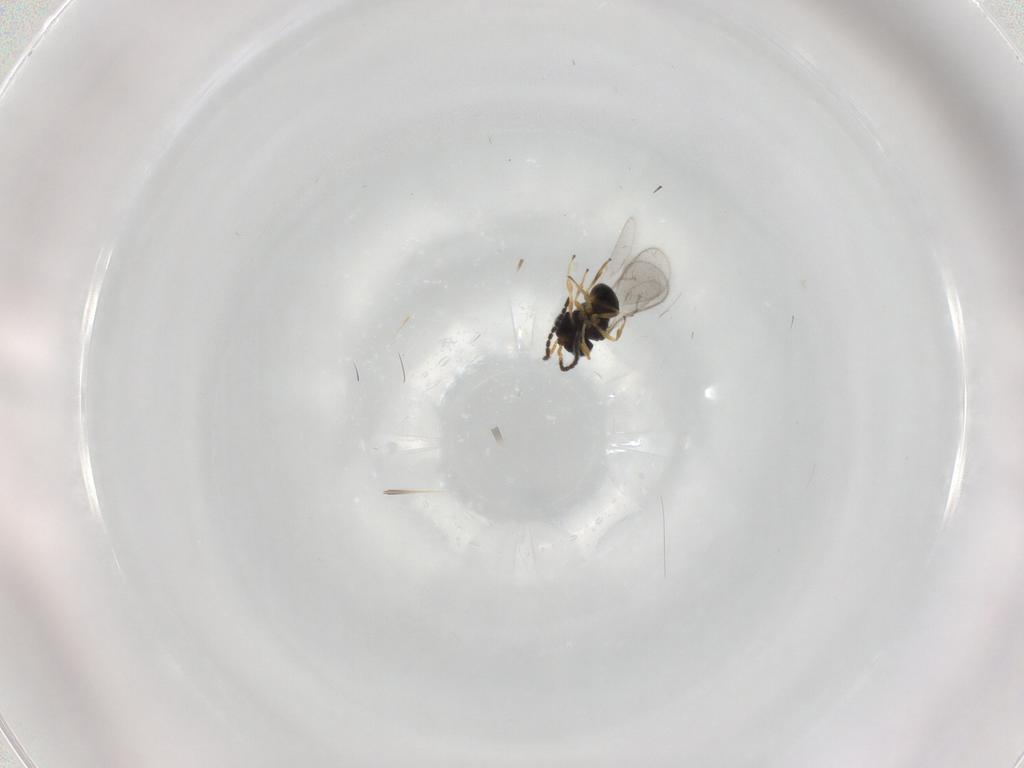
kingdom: Animalia
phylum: Arthropoda
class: Insecta
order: Hymenoptera
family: Scelionidae
